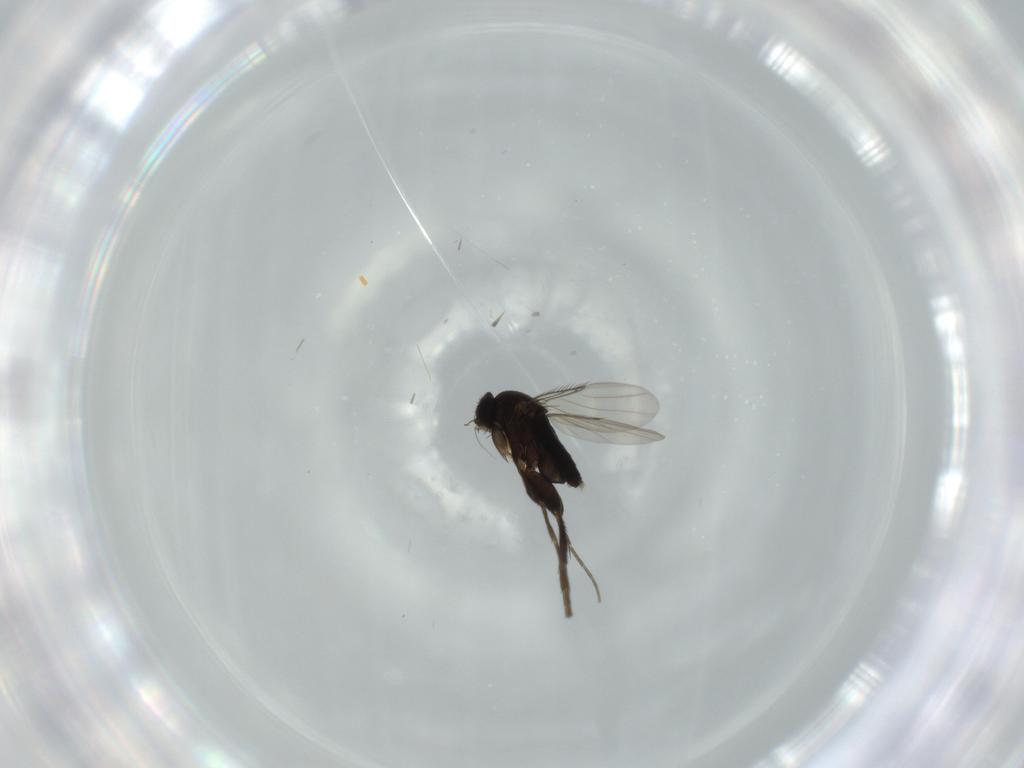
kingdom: Animalia
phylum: Arthropoda
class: Insecta
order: Diptera
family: Phoridae
